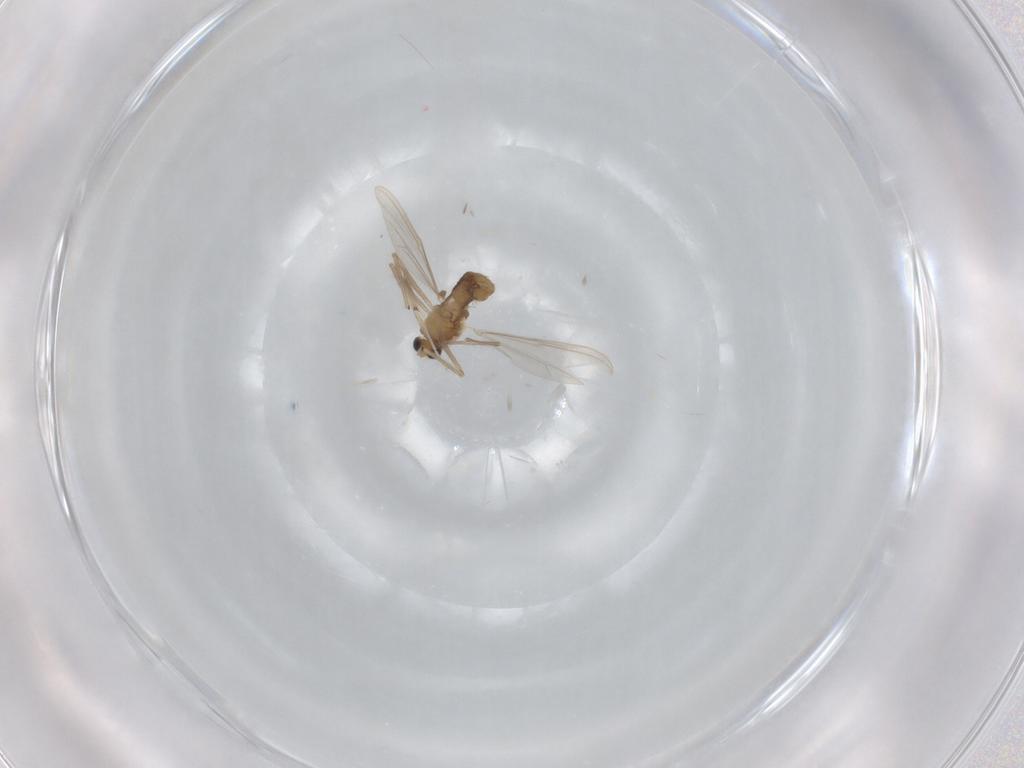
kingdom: Animalia
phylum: Arthropoda
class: Insecta
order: Diptera
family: Chironomidae
